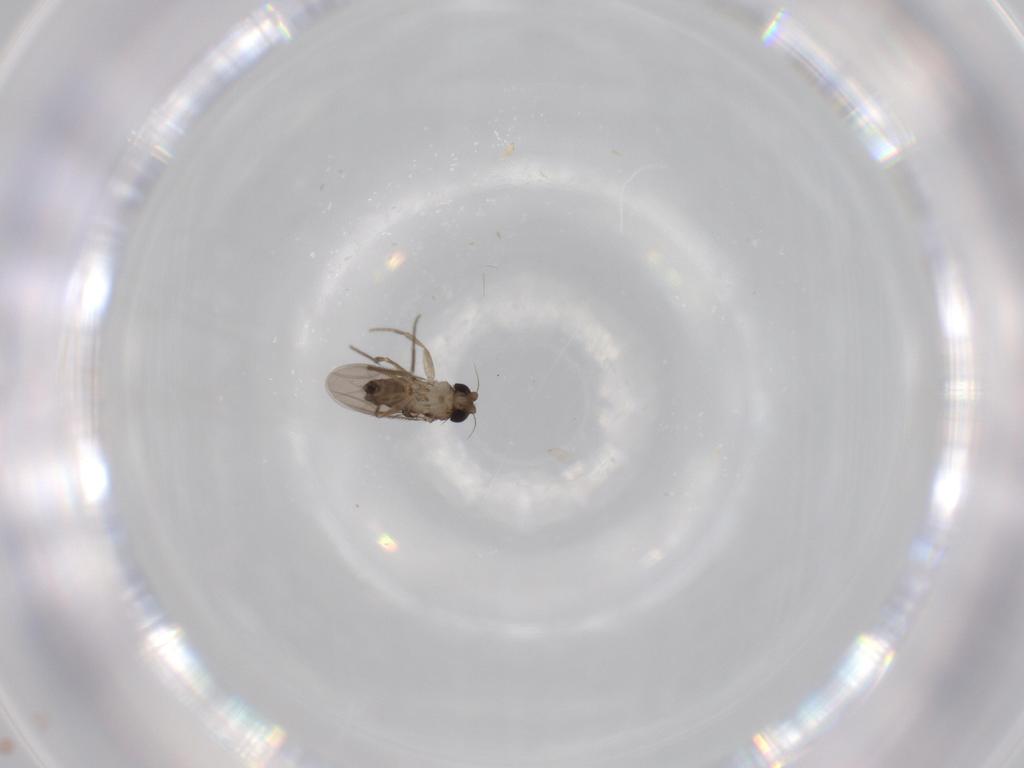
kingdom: Animalia
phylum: Arthropoda
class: Insecta
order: Diptera
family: Phoridae
